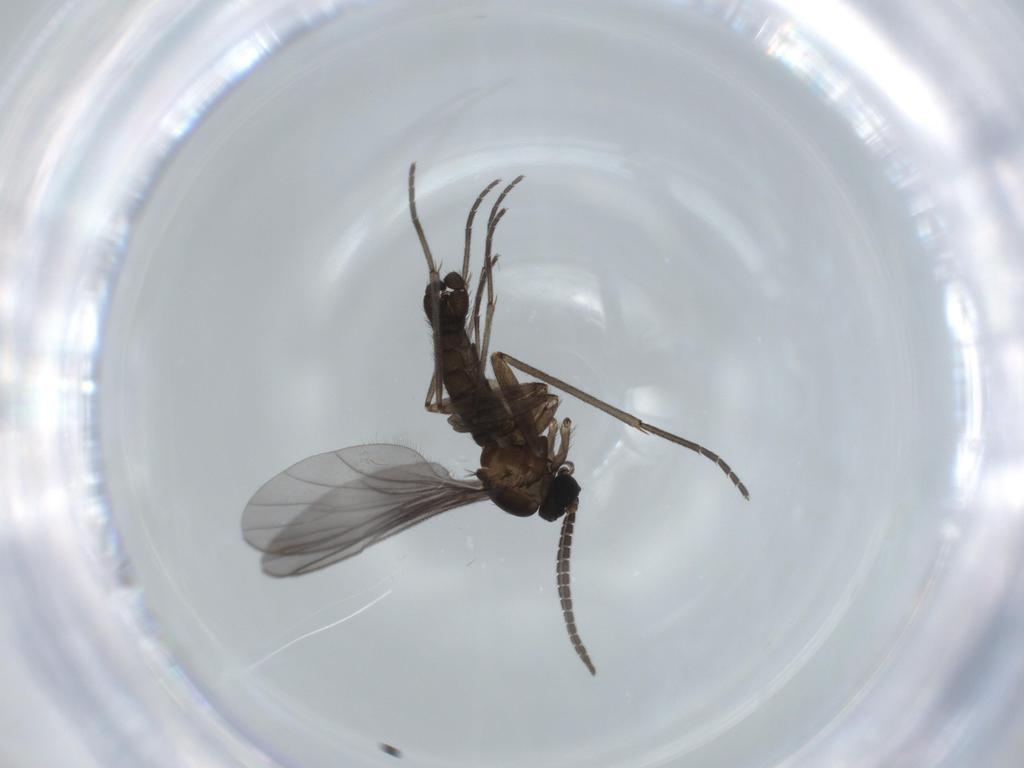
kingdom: Animalia
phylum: Arthropoda
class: Insecta
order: Diptera
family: Sciaridae
